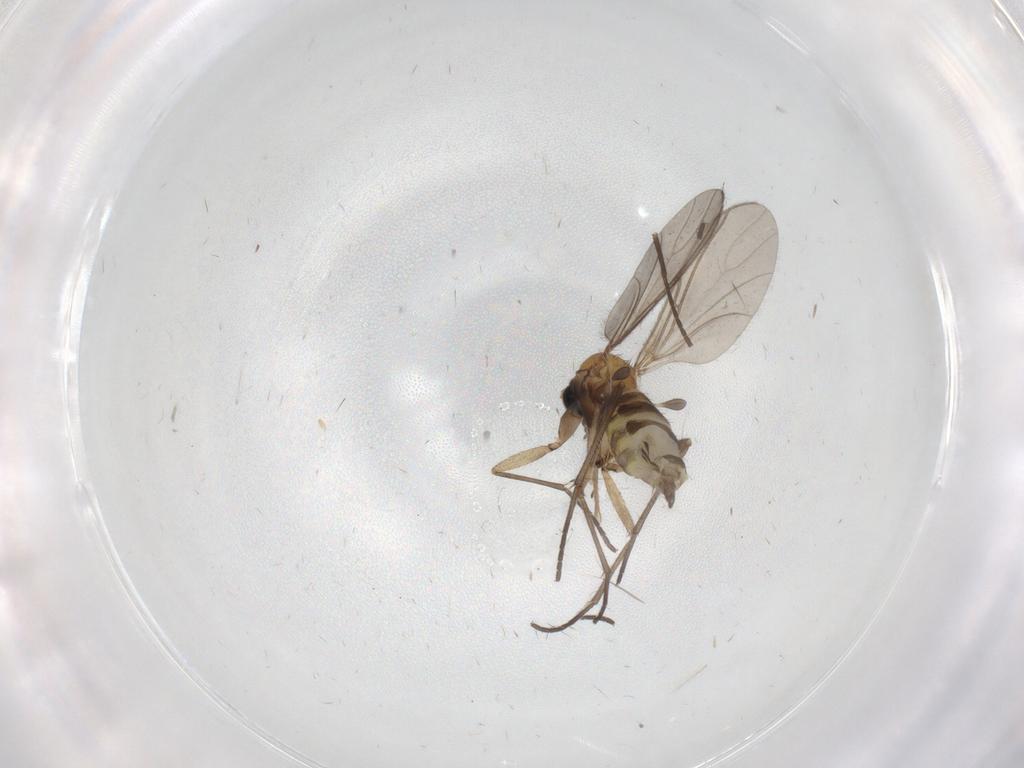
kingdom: Animalia
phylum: Arthropoda
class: Insecta
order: Diptera
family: Sciaridae
